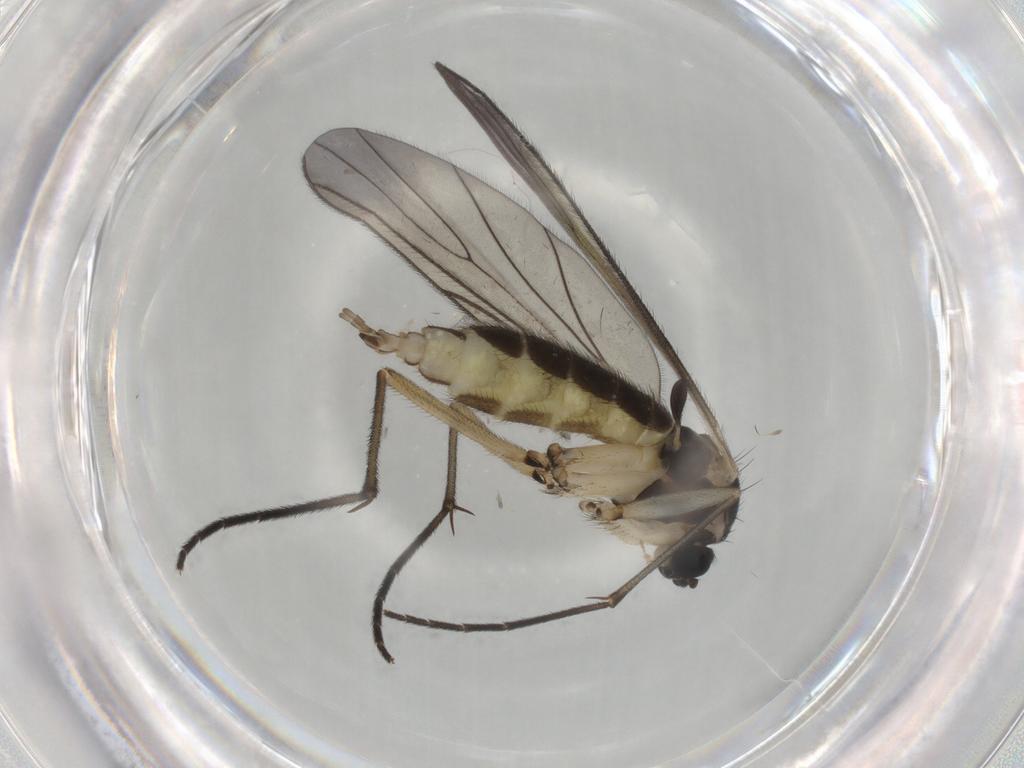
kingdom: Animalia
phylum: Arthropoda
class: Insecta
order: Diptera
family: Sciaridae
